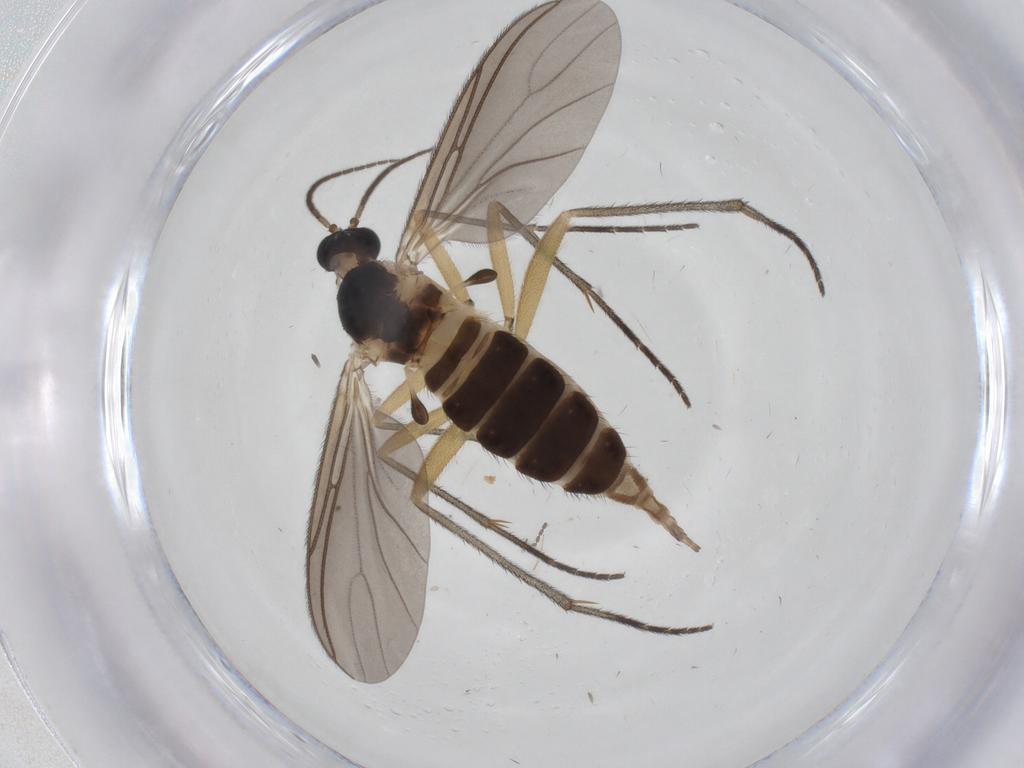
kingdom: Animalia
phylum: Arthropoda
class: Insecta
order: Diptera
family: Sciaridae
